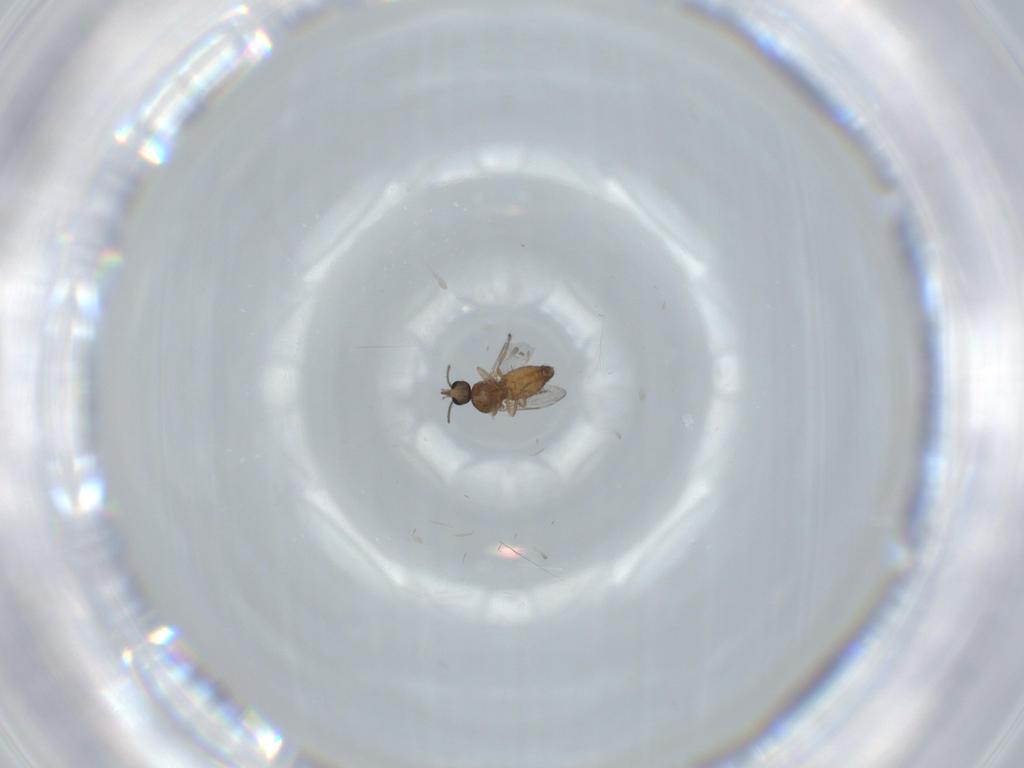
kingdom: Animalia
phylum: Arthropoda
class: Insecta
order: Diptera
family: Ceratopogonidae
